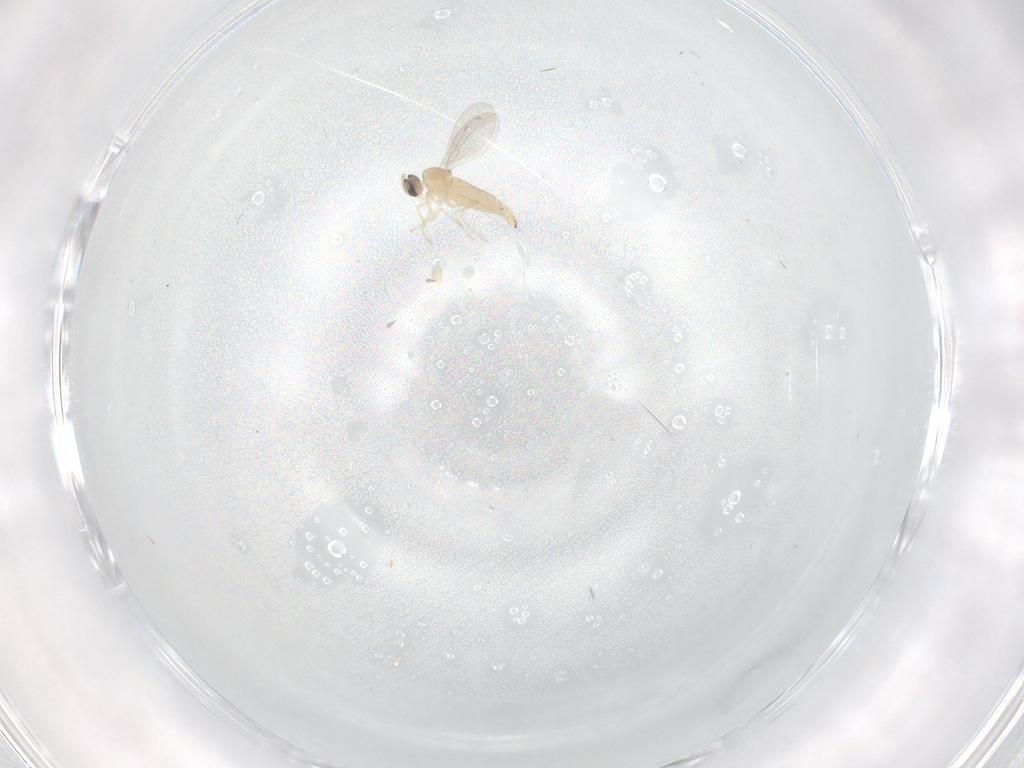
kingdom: Animalia
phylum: Arthropoda
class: Insecta
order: Diptera
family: Cecidomyiidae
